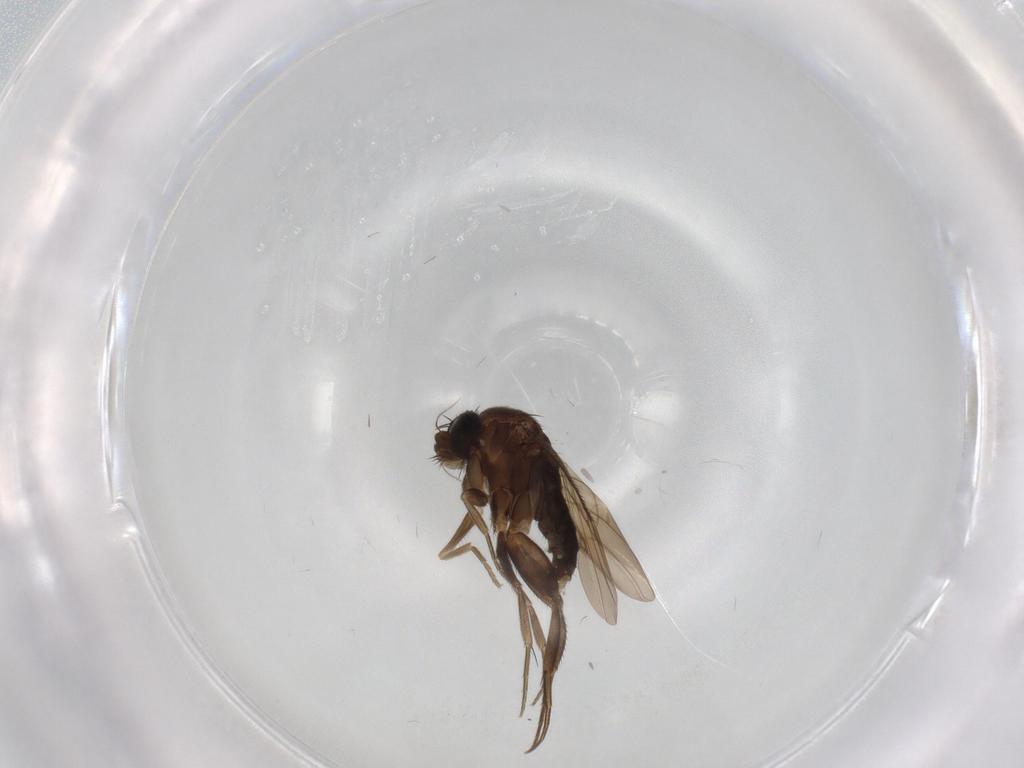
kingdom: Animalia
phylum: Arthropoda
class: Insecta
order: Diptera
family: Phoridae
